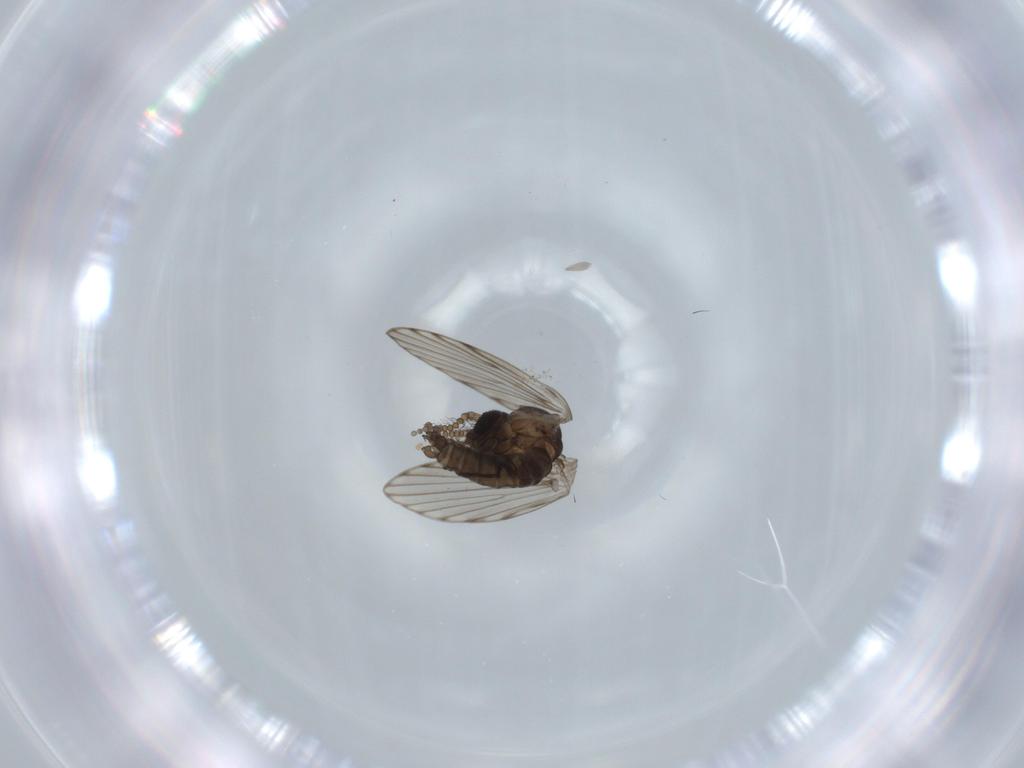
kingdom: Animalia
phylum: Arthropoda
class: Insecta
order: Diptera
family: Psychodidae
